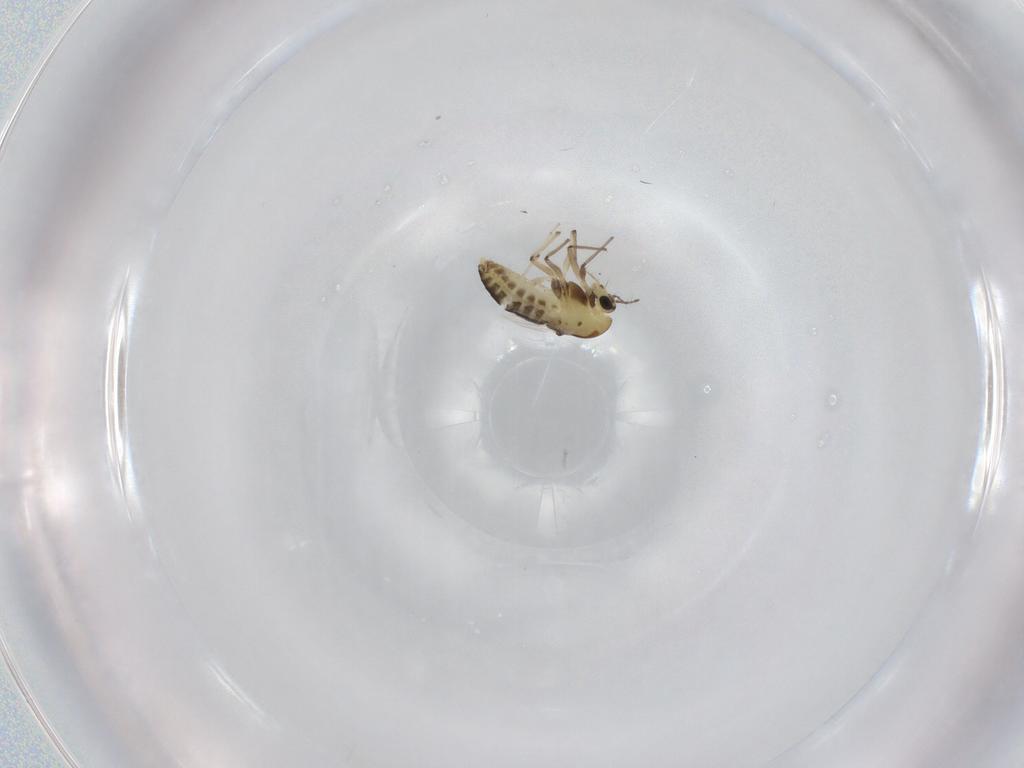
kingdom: Animalia
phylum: Arthropoda
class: Insecta
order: Diptera
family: Chironomidae
